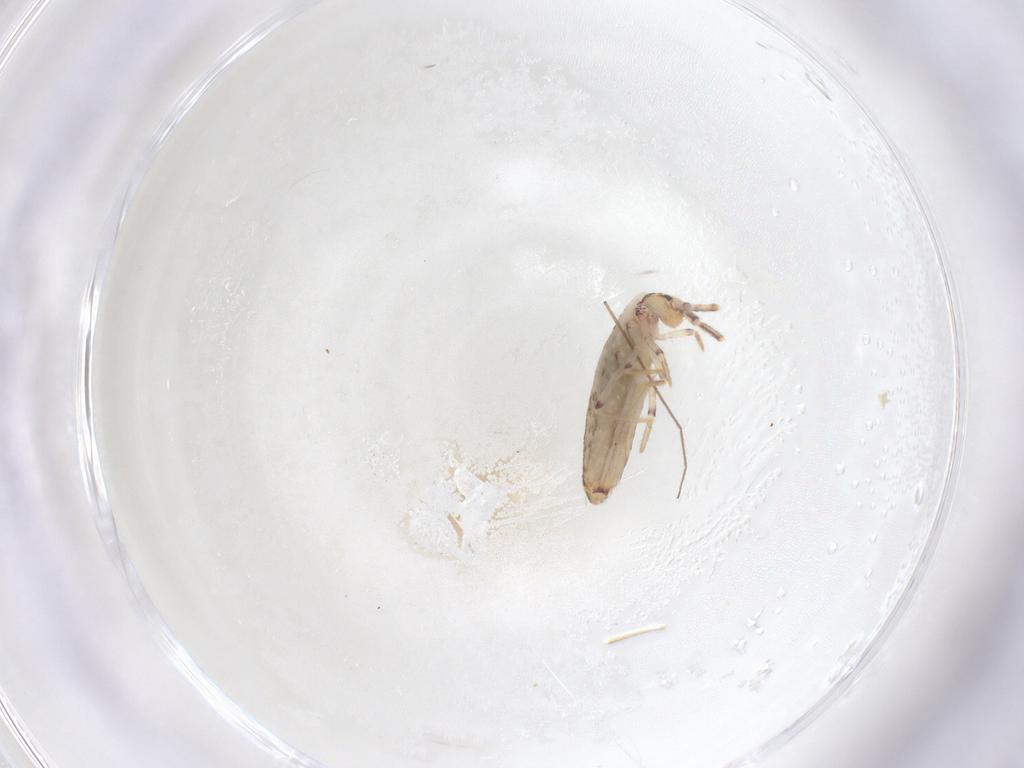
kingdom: Animalia
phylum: Arthropoda
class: Collembola
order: Entomobryomorpha
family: Entomobryidae
